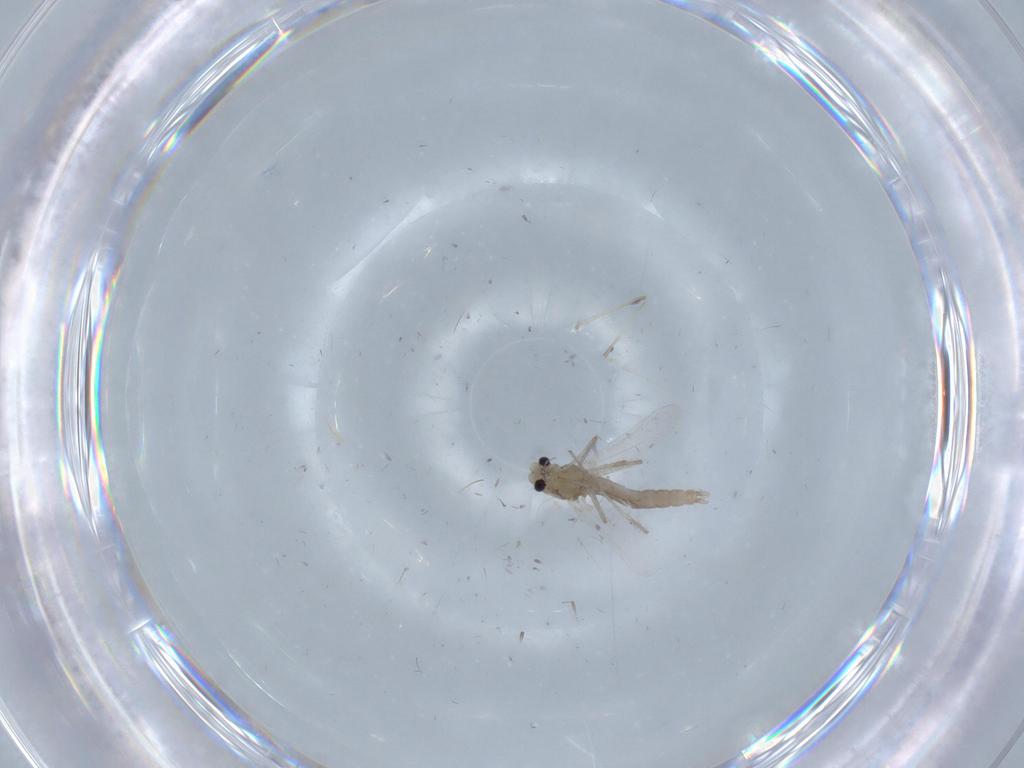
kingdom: Animalia
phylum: Arthropoda
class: Insecta
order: Diptera
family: Chironomidae
